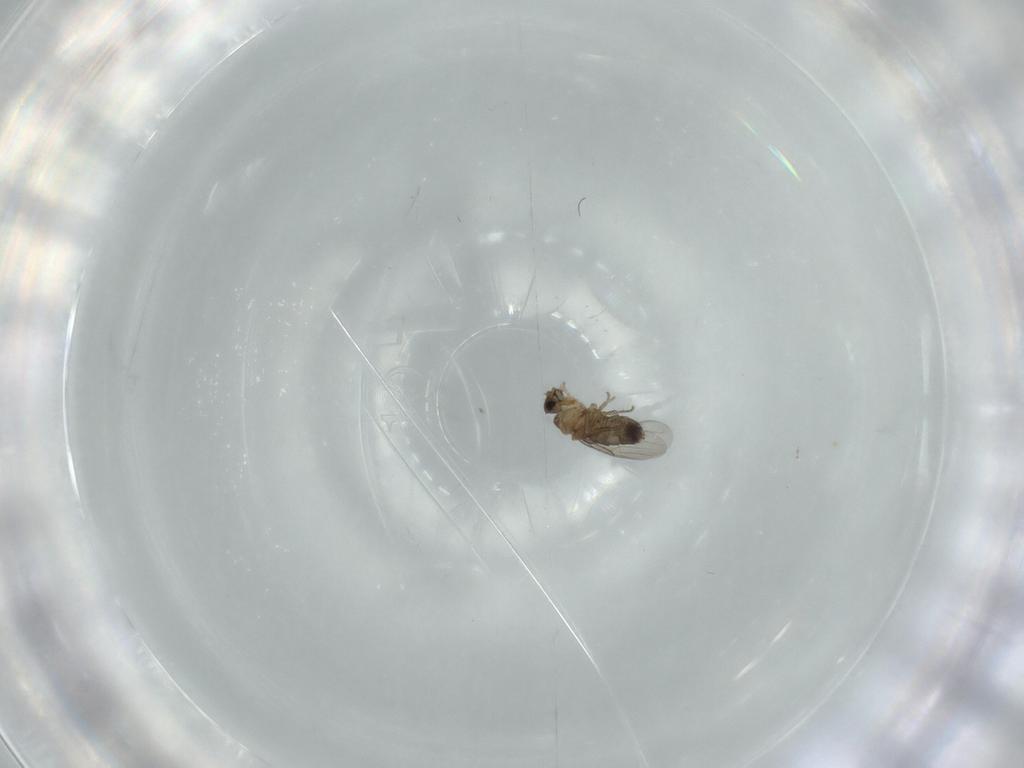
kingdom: Animalia
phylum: Arthropoda
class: Insecta
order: Diptera
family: Phoridae
